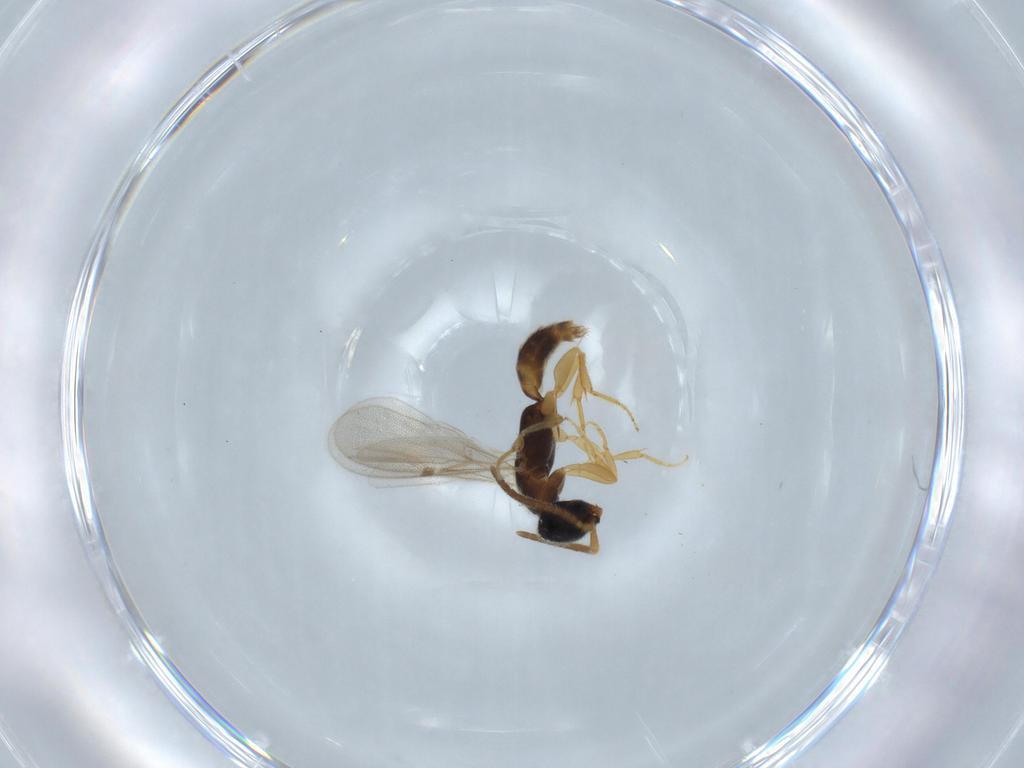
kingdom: Animalia
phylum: Arthropoda
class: Insecta
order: Hymenoptera
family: Bethylidae
